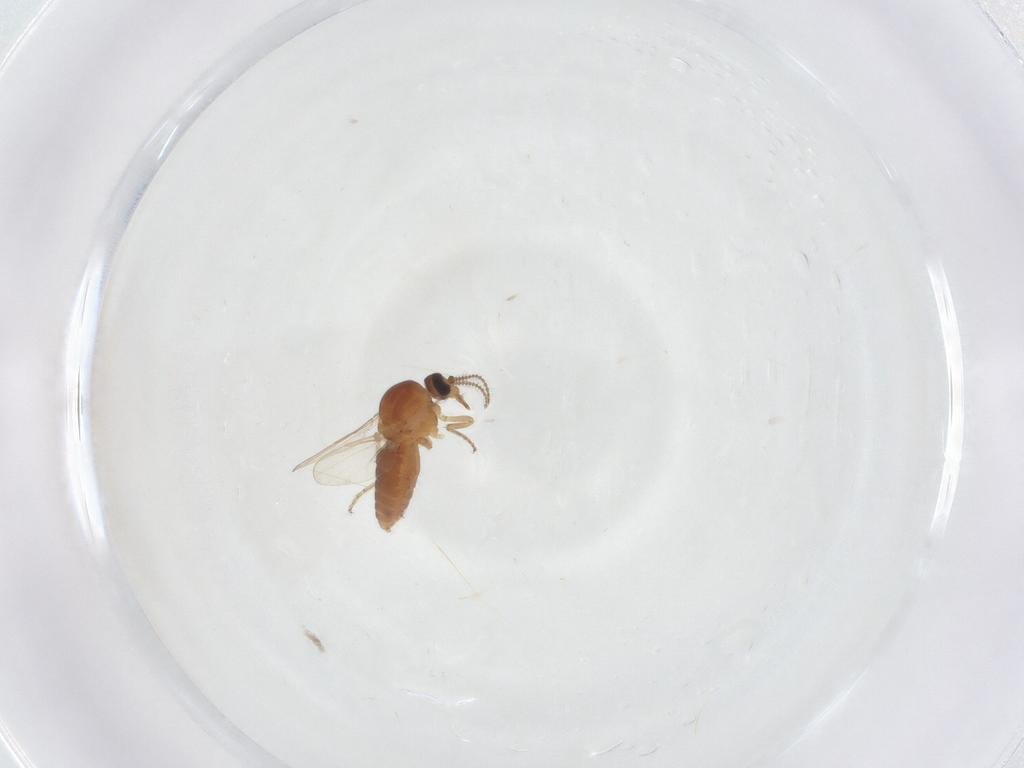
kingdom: Animalia
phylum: Arthropoda
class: Insecta
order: Diptera
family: Ceratopogonidae
